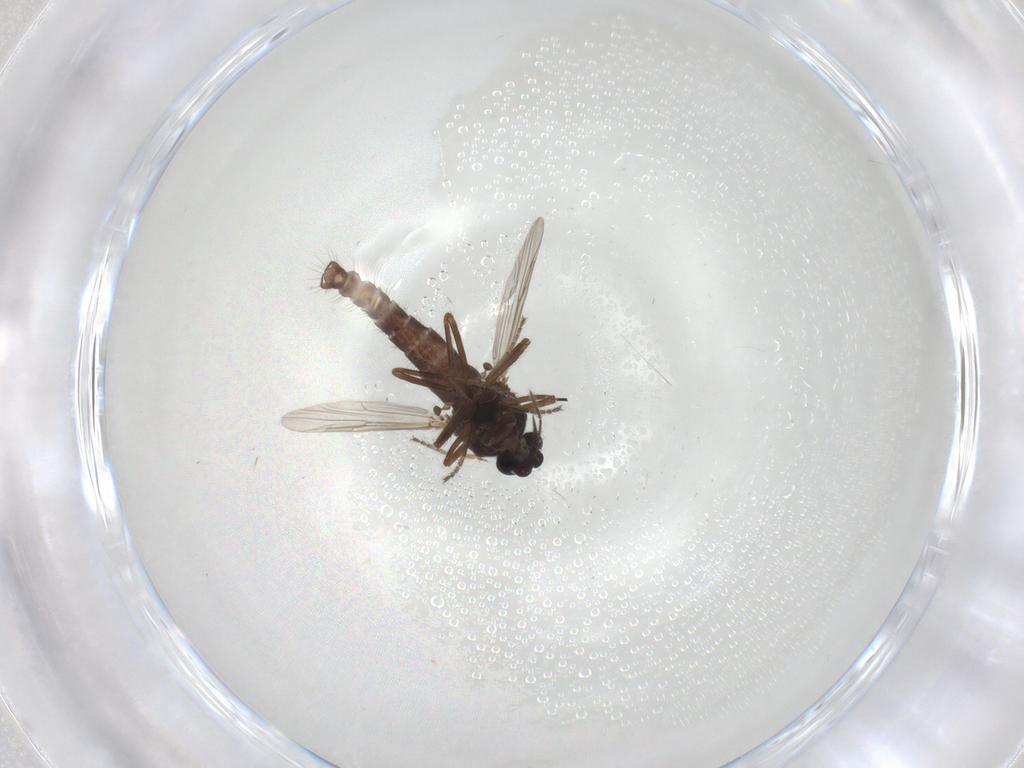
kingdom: Animalia
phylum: Arthropoda
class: Insecta
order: Diptera
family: Ceratopogonidae
